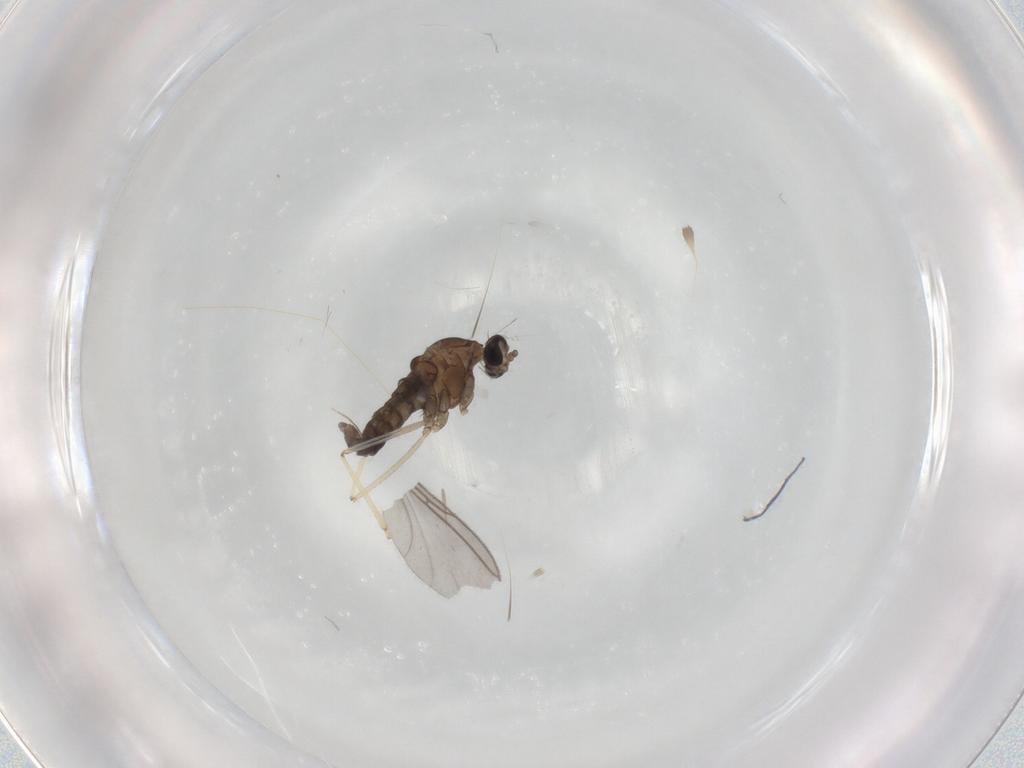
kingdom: Animalia
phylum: Arthropoda
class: Insecta
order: Diptera
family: Cecidomyiidae
